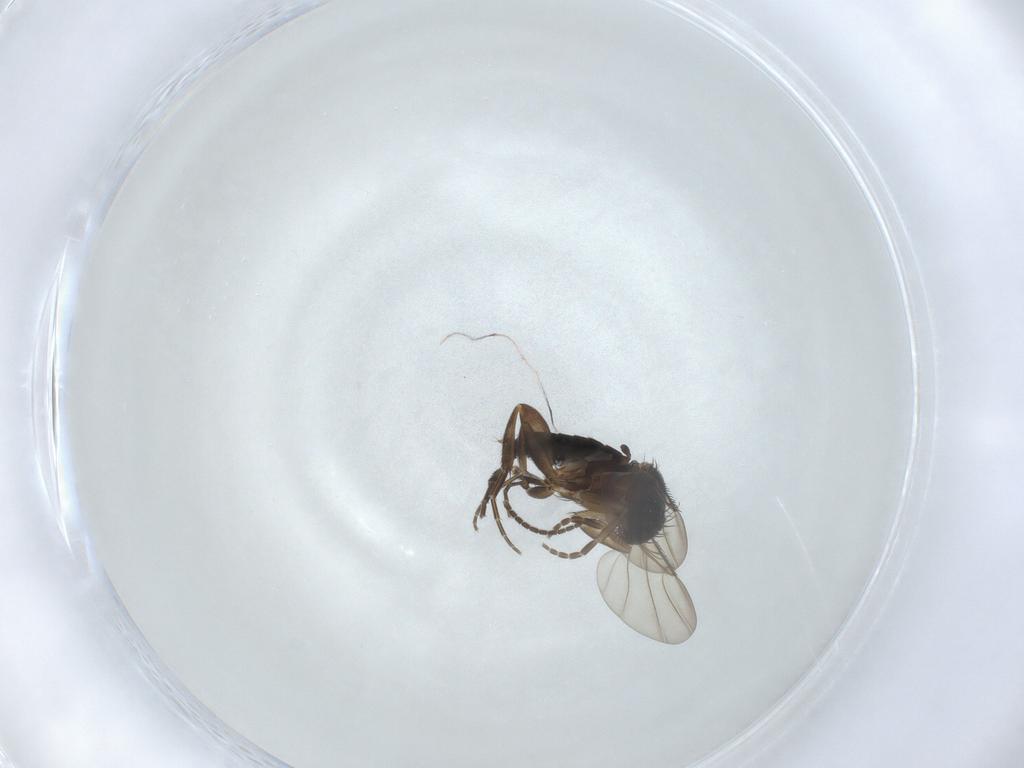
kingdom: Animalia
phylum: Arthropoda
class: Insecta
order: Diptera
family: Phoridae
